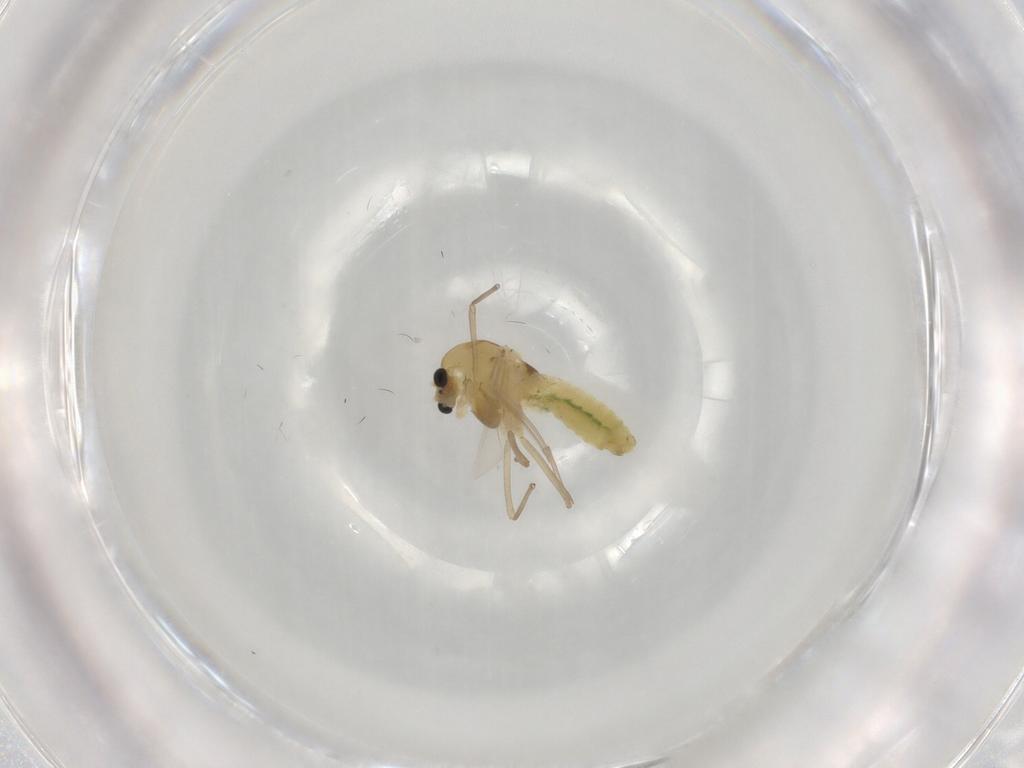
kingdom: Animalia
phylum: Arthropoda
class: Insecta
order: Diptera
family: Chironomidae
